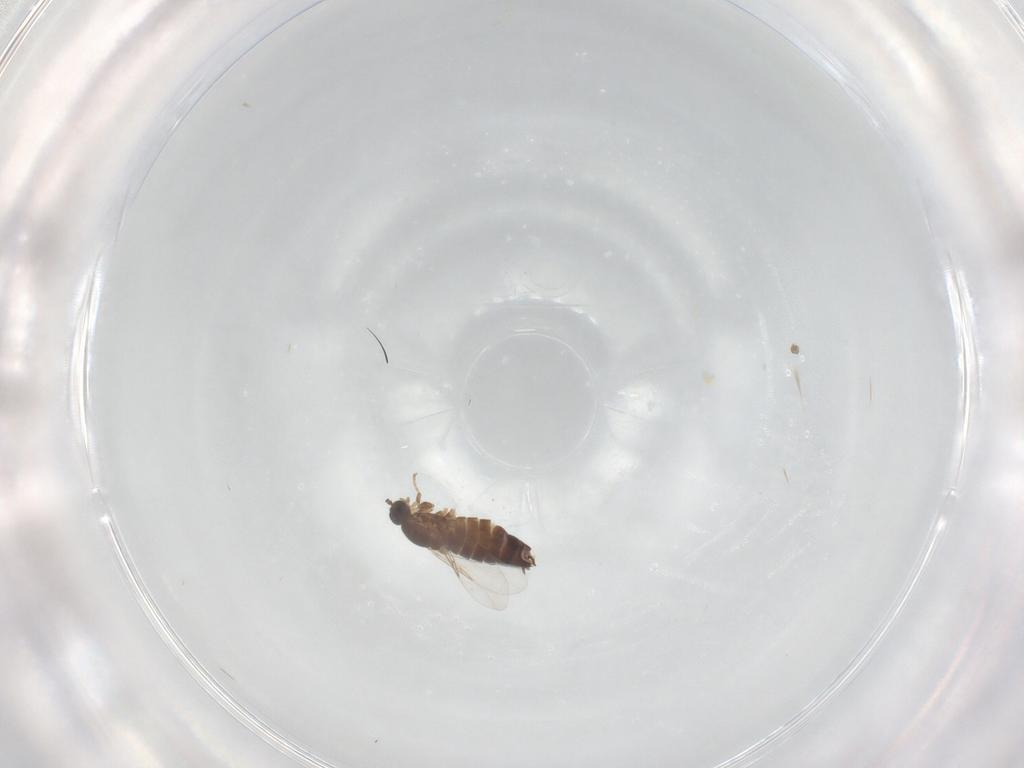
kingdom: Animalia
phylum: Arthropoda
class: Insecta
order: Diptera
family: Scatopsidae
